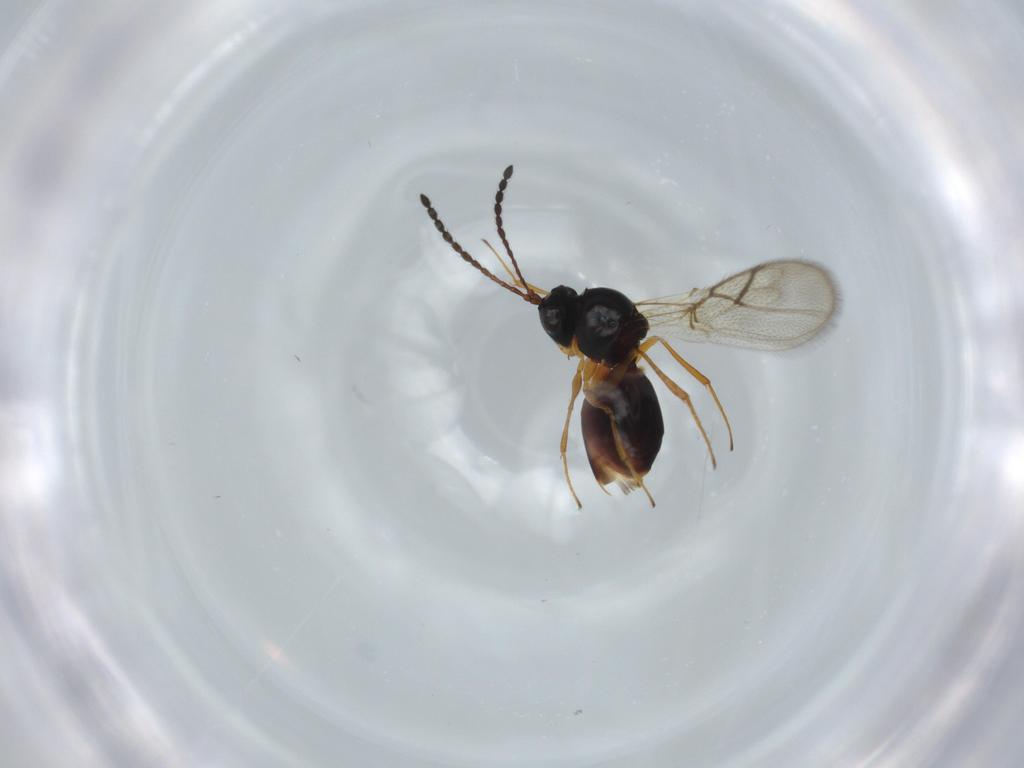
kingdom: Animalia
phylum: Arthropoda
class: Insecta
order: Hymenoptera
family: Figitidae
